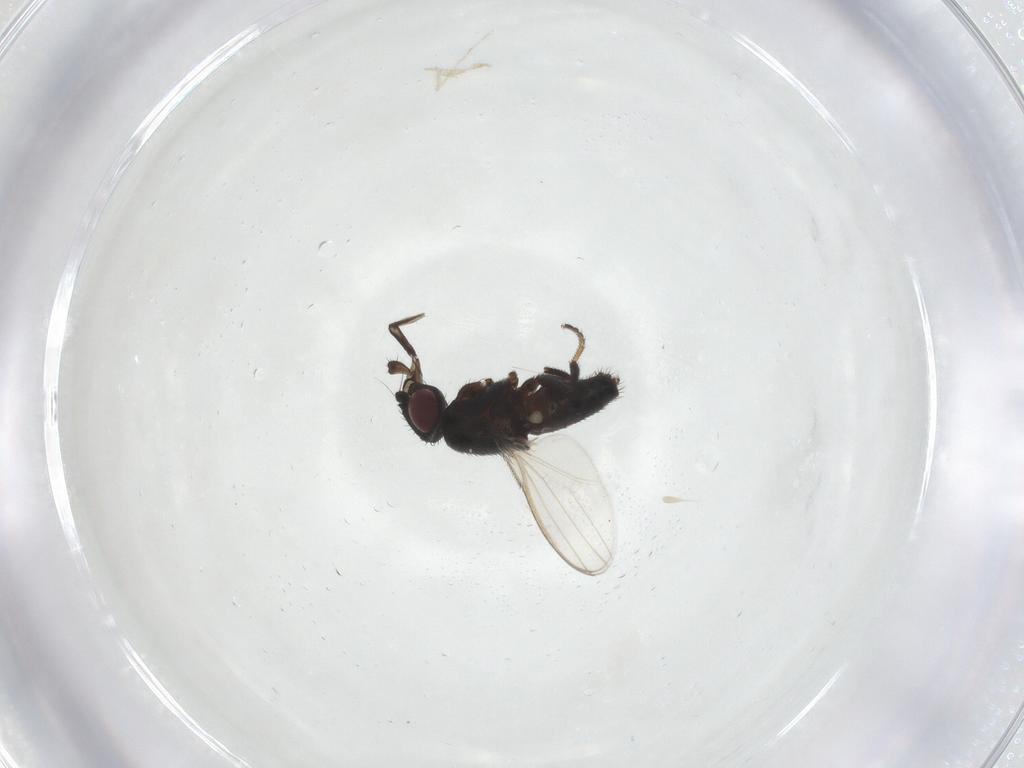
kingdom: Animalia
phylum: Arthropoda
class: Insecta
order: Diptera
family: Milichiidae
